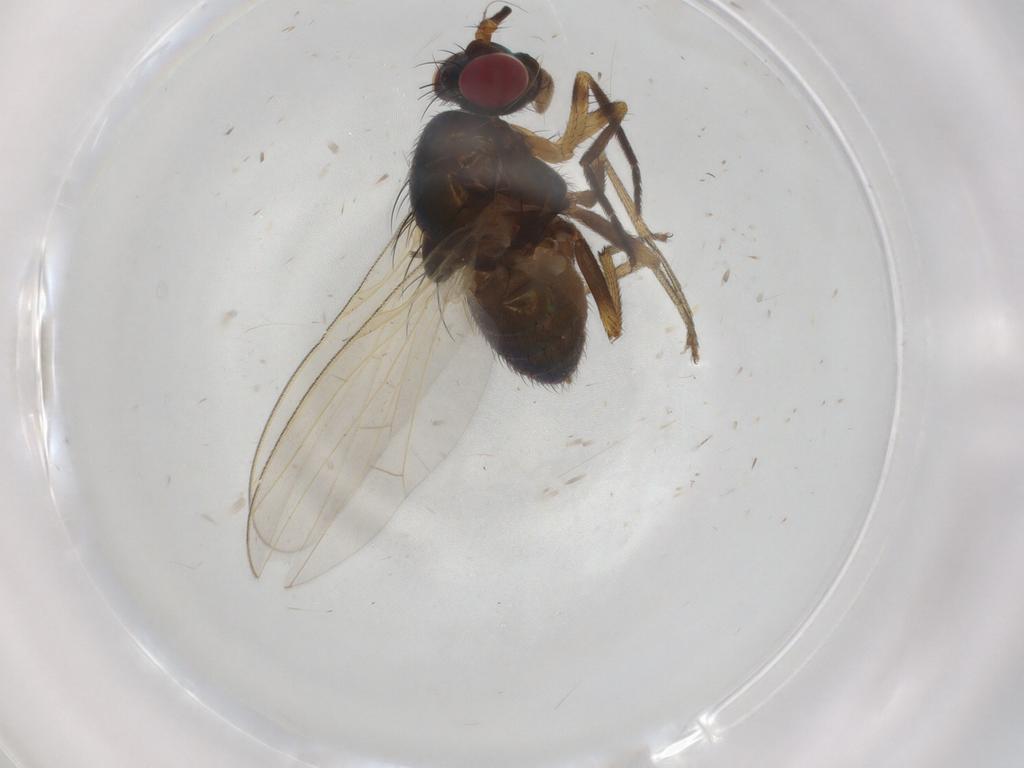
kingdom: Animalia
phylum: Arthropoda
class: Insecta
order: Diptera
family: Lauxaniidae
